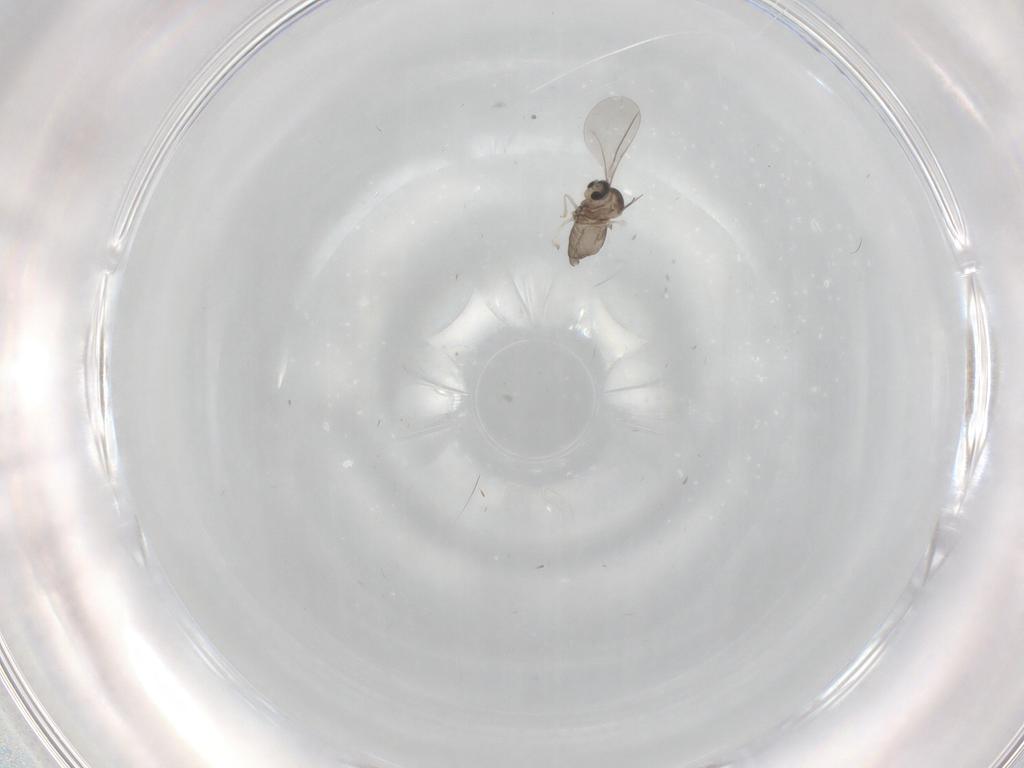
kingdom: Animalia
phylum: Arthropoda
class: Insecta
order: Diptera
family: Cecidomyiidae
